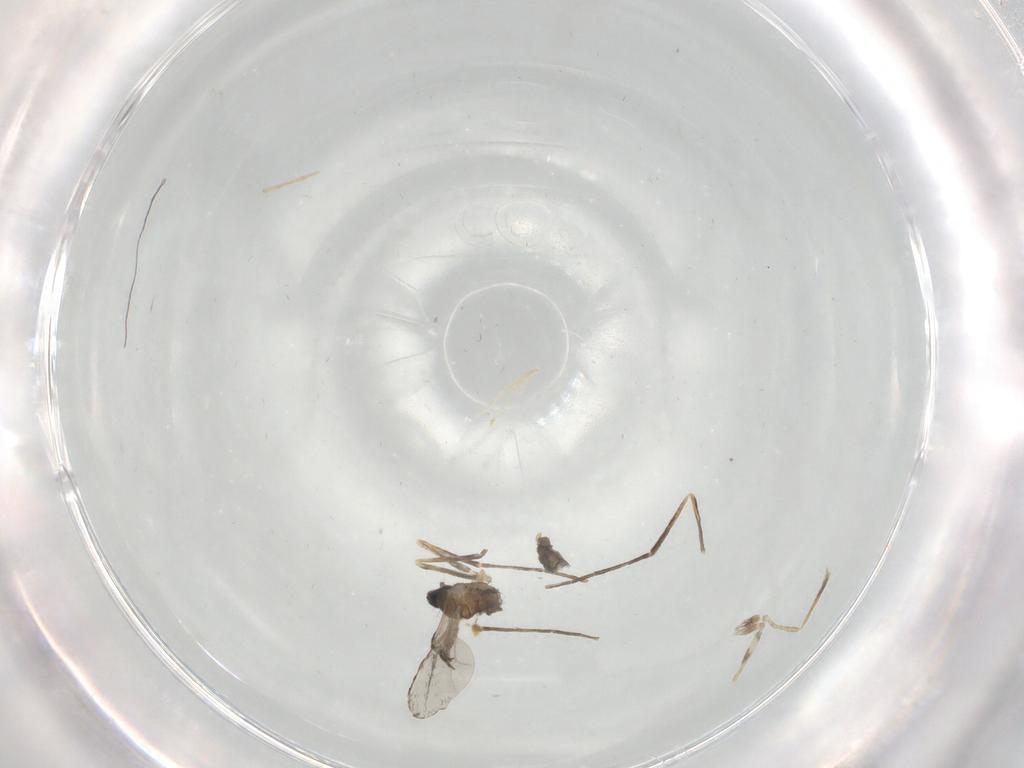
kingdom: Animalia
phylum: Arthropoda
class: Insecta
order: Diptera
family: Cecidomyiidae
